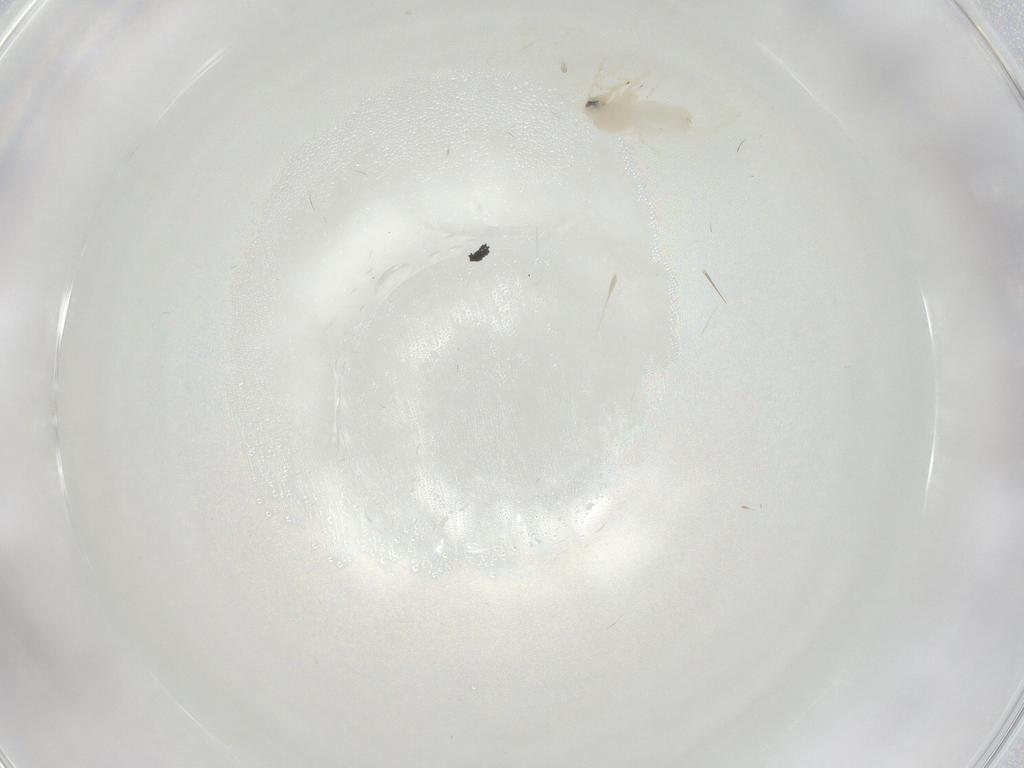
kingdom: Animalia
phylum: Arthropoda
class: Insecta
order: Hemiptera
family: Aleyrodidae
